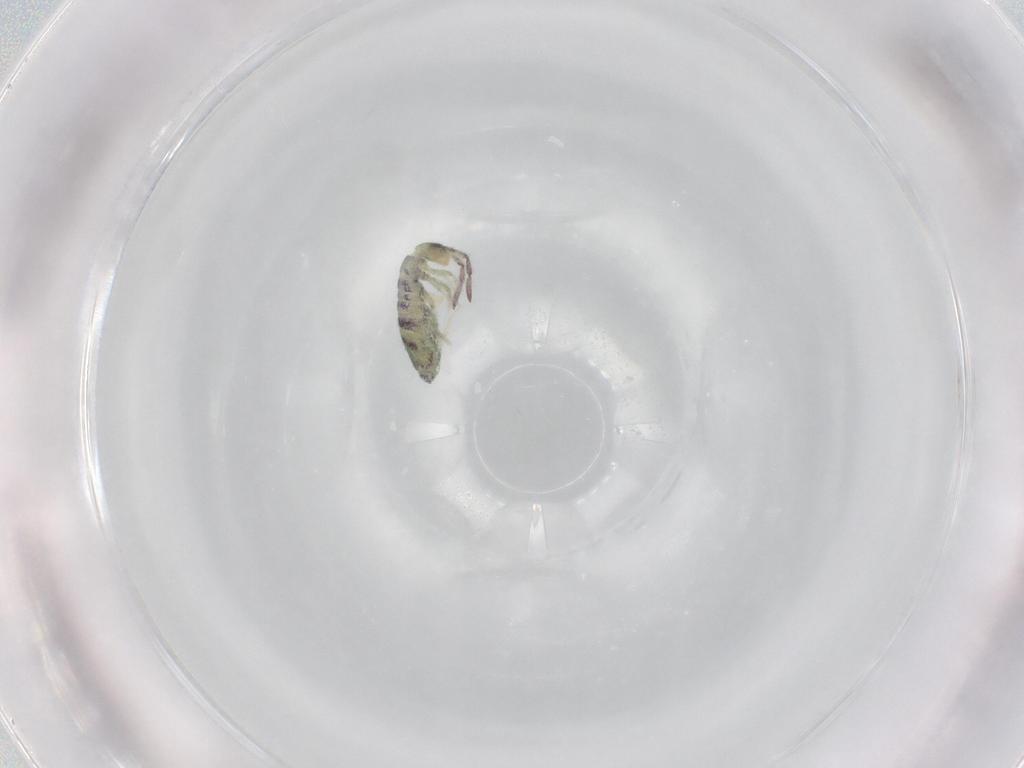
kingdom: Animalia
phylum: Arthropoda
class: Collembola
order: Entomobryomorpha
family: Entomobryidae
